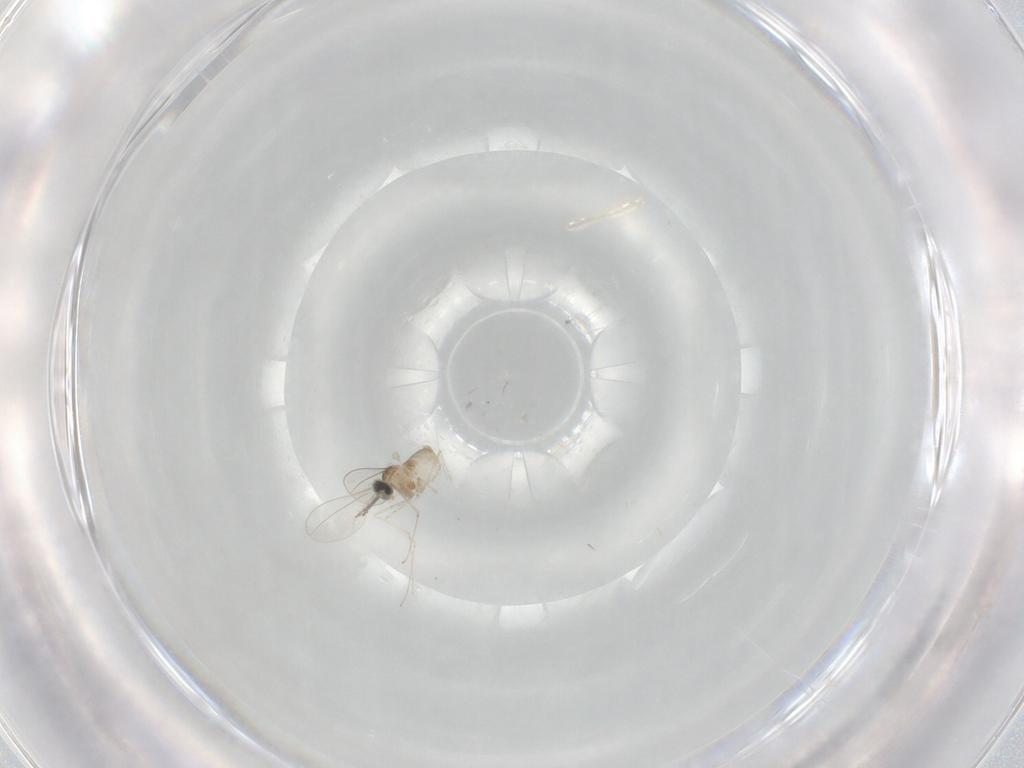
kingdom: Animalia
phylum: Arthropoda
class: Insecta
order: Diptera
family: Cecidomyiidae
